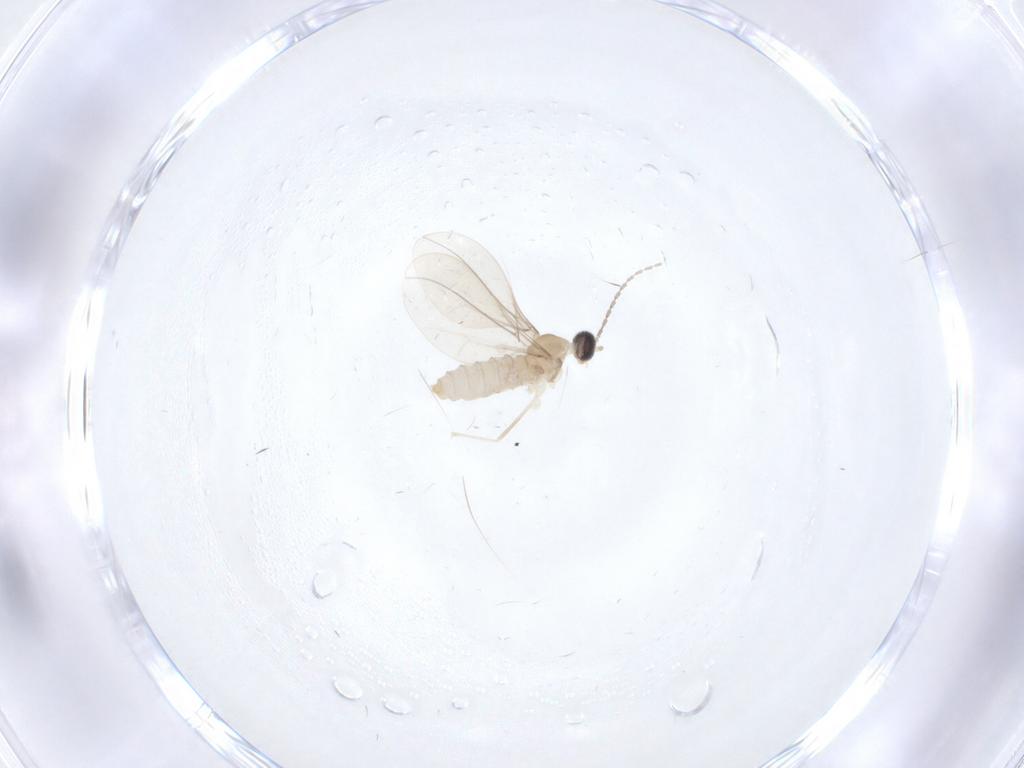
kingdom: Animalia
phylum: Arthropoda
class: Insecta
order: Diptera
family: Cecidomyiidae
